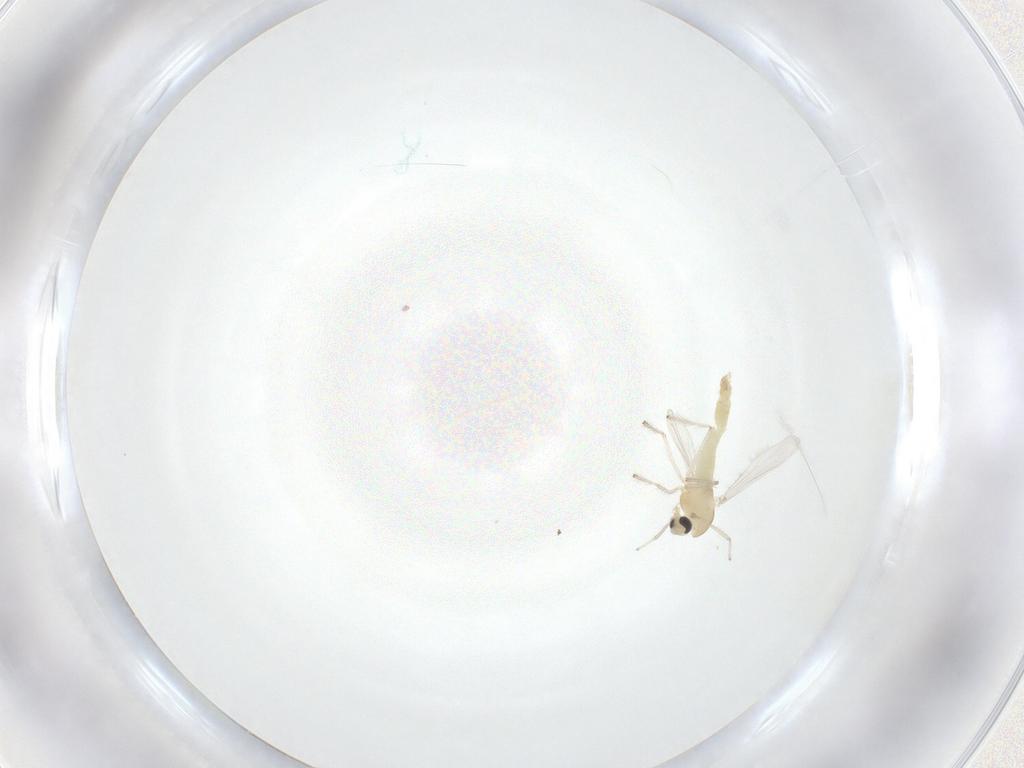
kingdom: Animalia
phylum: Arthropoda
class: Insecta
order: Diptera
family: Chironomidae
